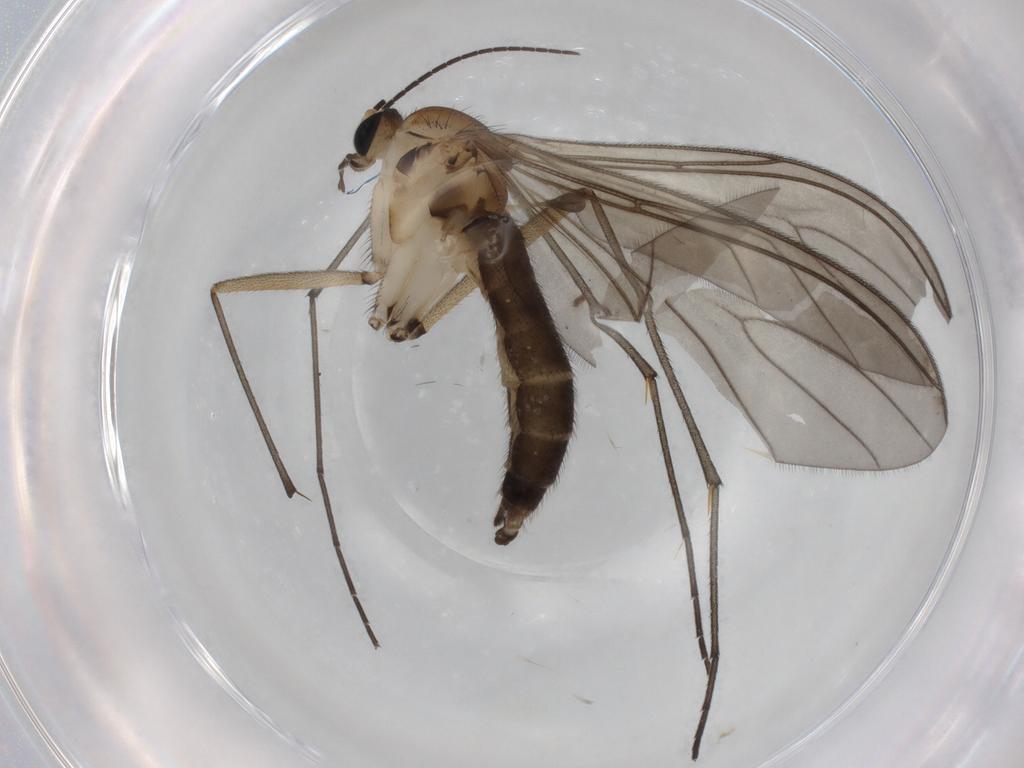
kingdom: Animalia
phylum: Arthropoda
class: Insecta
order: Diptera
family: Sciaridae
